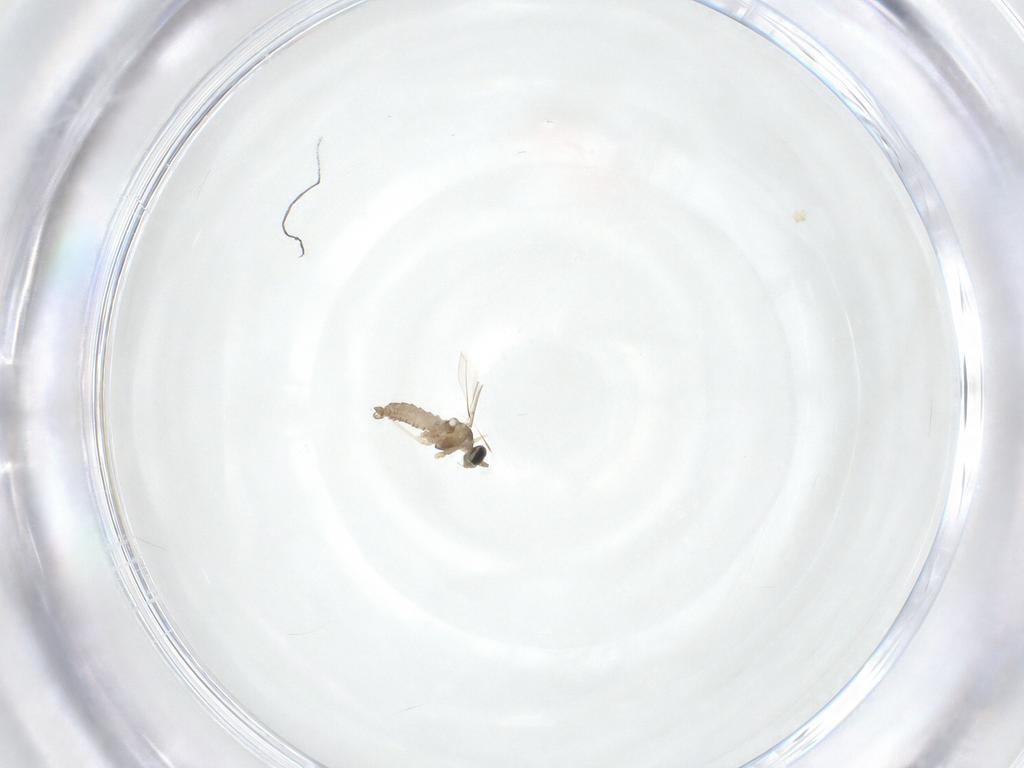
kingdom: Animalia
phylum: Arthropoda
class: Insecta
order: Diptera
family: Cecidomyiidae
